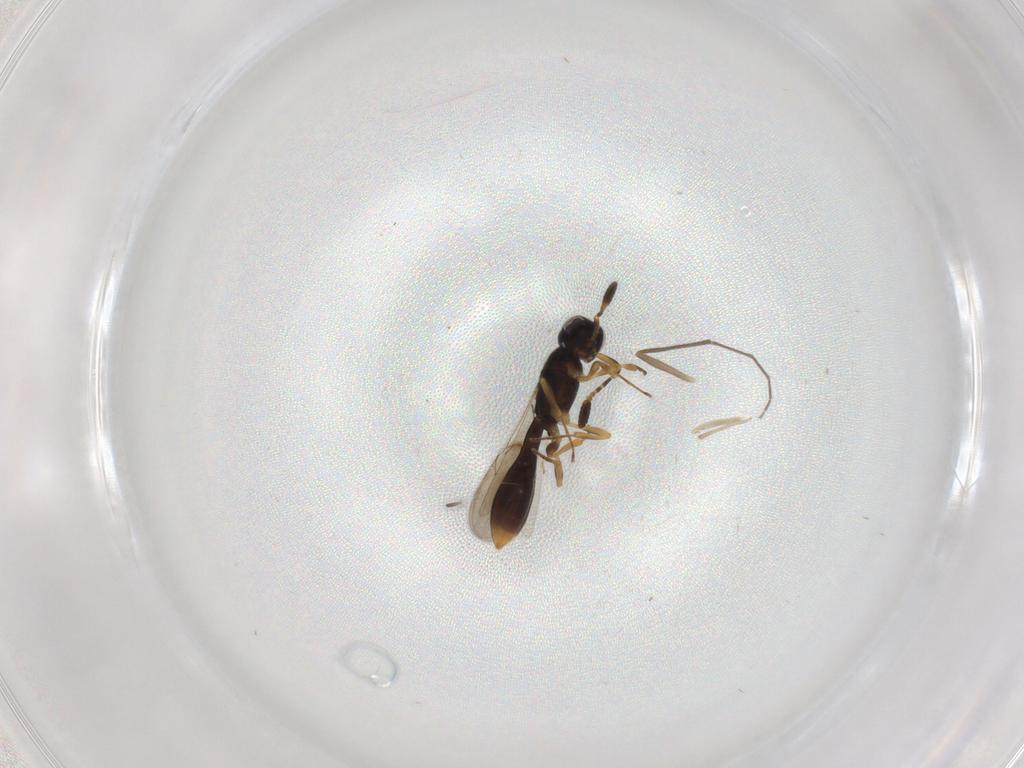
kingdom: Animalia
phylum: Arthropoda
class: Insecta
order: Hymenoptera
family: Scelionidae
